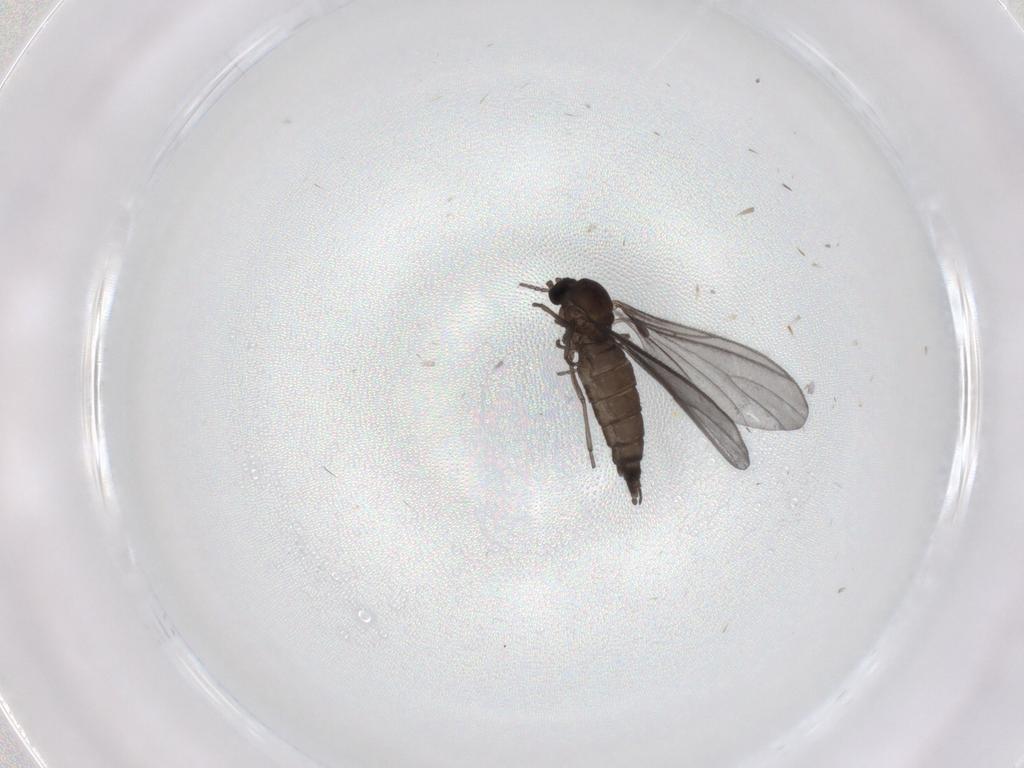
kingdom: Animalia
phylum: Arthropoda
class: Insecta
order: Diptera
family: Sciaridae
